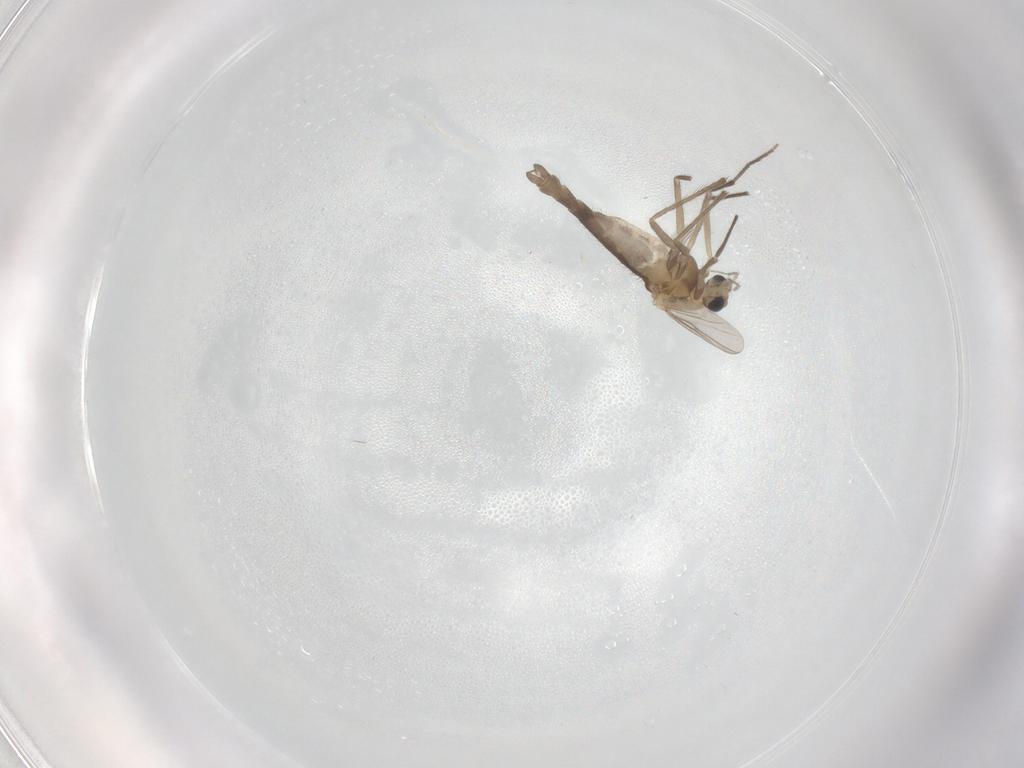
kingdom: Animalia
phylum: Arthropoda
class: Insecta
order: Diptera
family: Chironomidae
